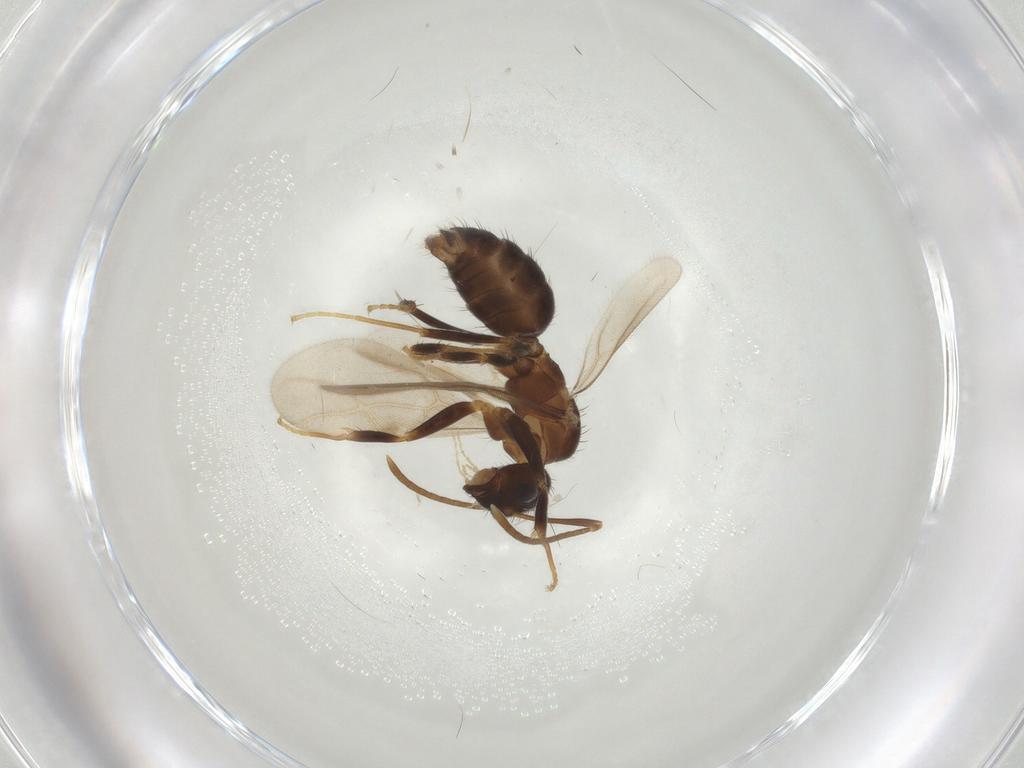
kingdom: Animalia
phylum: Arthropoda
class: Insecta
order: Hymenoptera
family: Formicidae
